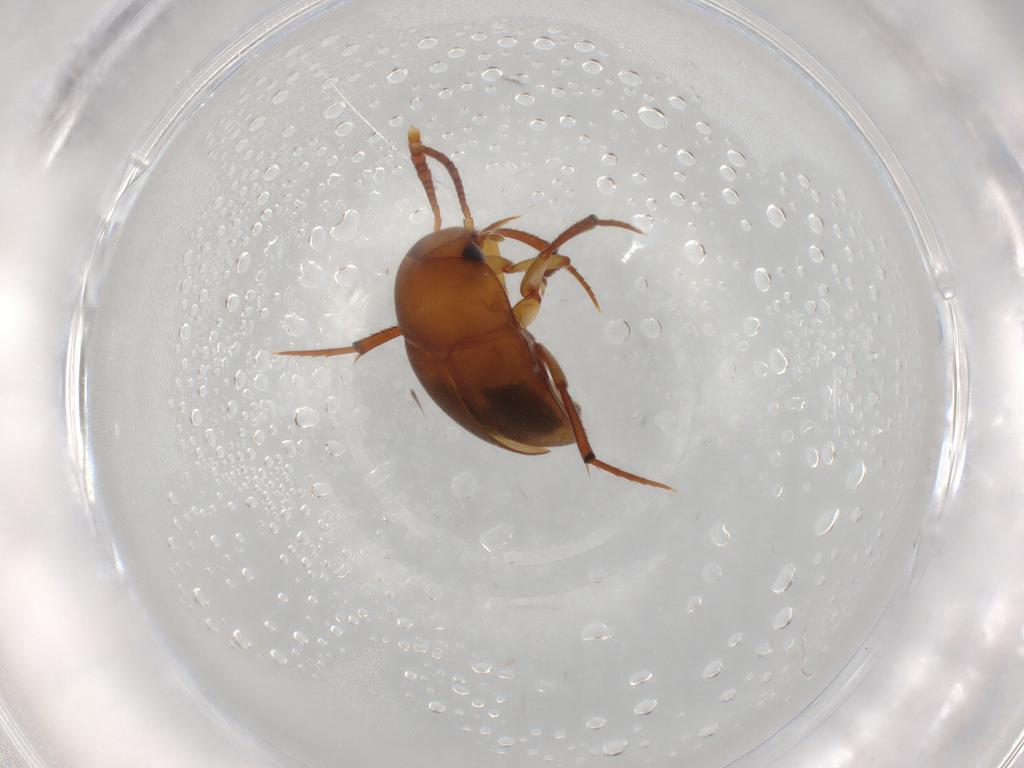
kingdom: Animalia
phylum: Arthropoda
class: Insecta
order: Coleoptera
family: Leiodidae
